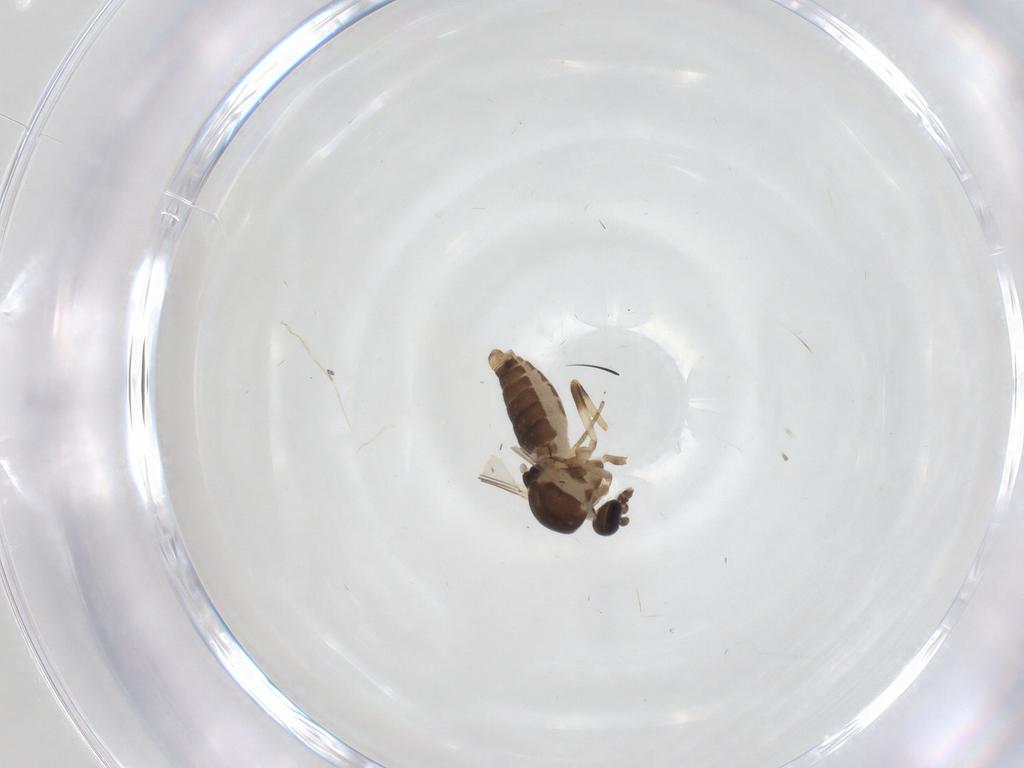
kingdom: Animalia
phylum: Arthropoda
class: Insecta
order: Diptera
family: Ceratopogonidae
